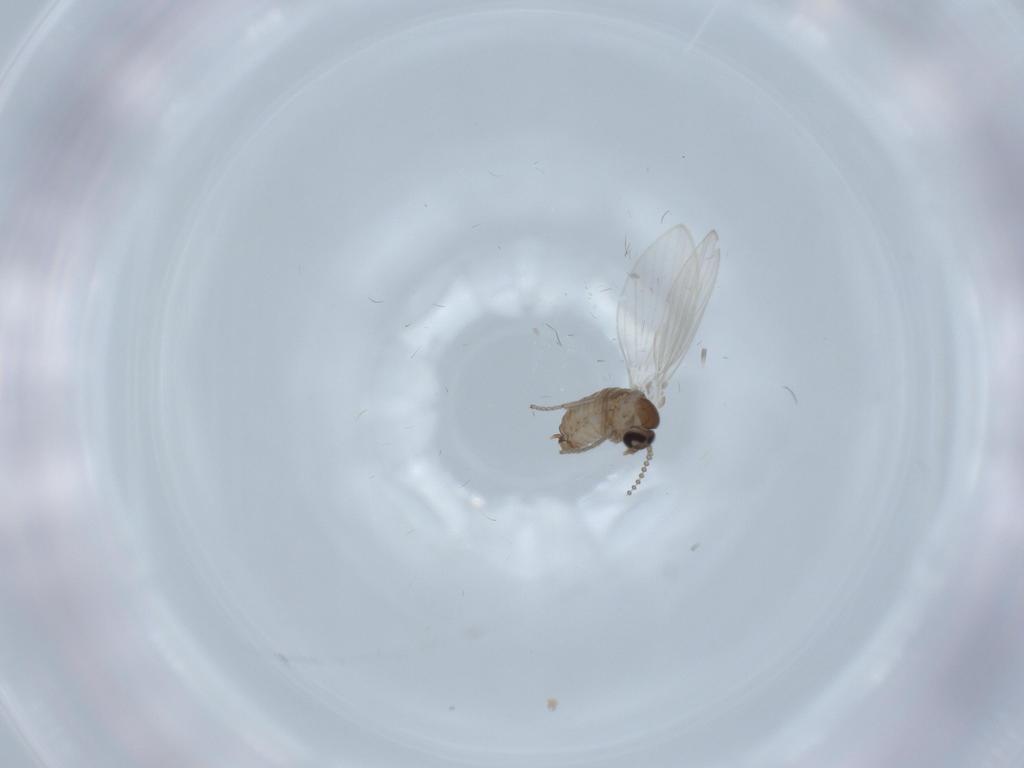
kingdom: Animalia
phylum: Arthropoda
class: Insecta
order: Diptera
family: Psychodidae
